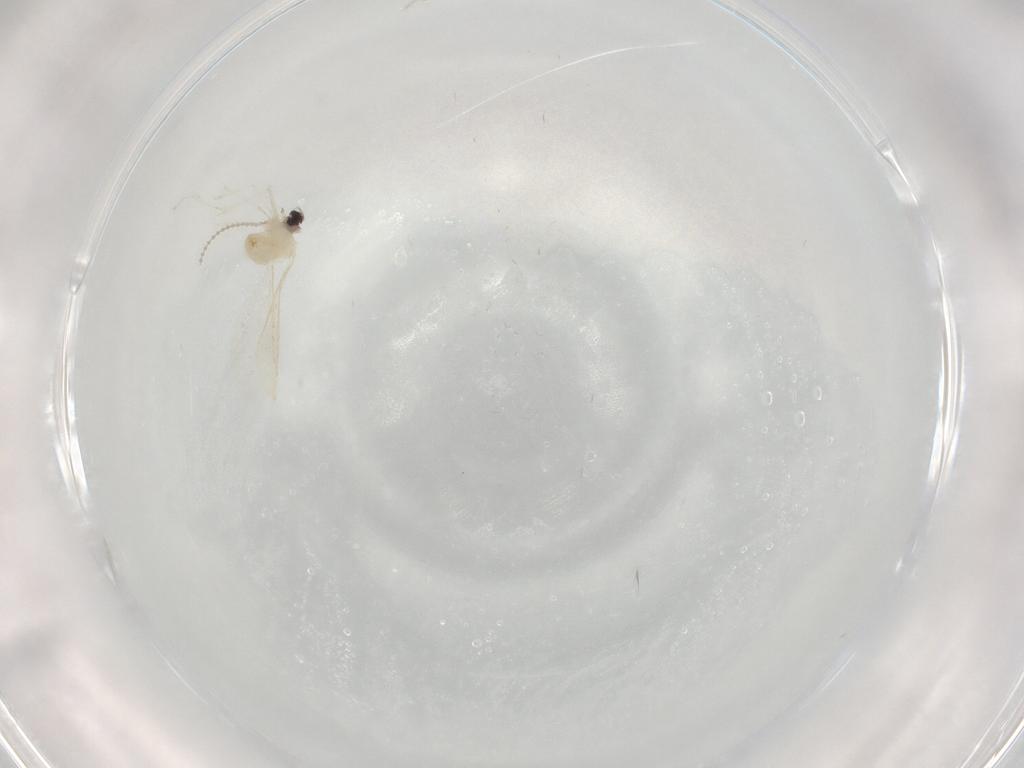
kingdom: Animalia
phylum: Arthropoda
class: Insecta
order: Diptera
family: Cecidomyiidae
